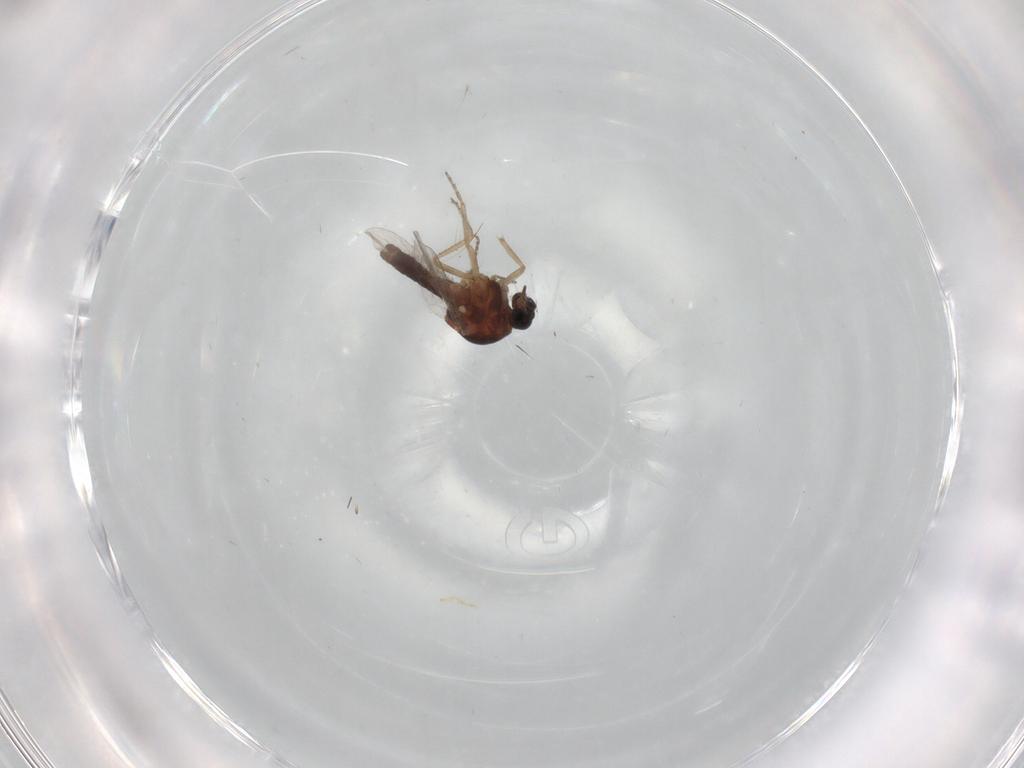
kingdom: Animalia
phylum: Arthropoda
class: Insecta
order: Diptera
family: Ceratopogonidae
